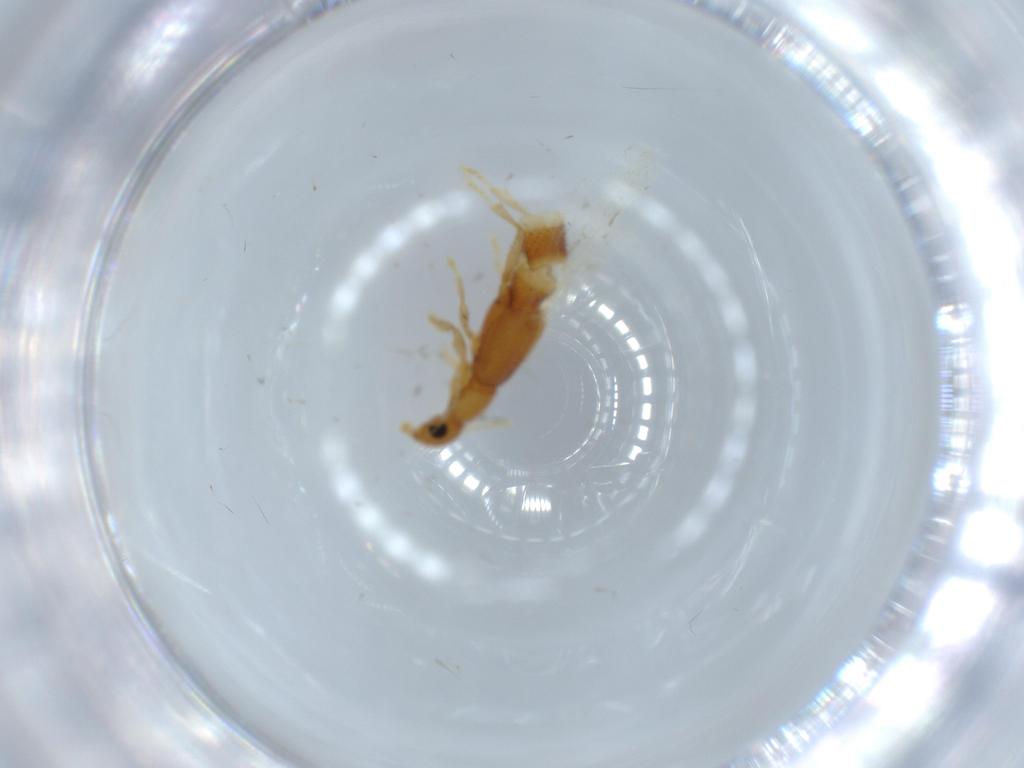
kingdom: Animalia
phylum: Arthropoda
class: Insecta
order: Coleoptera
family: Staphylinidae
